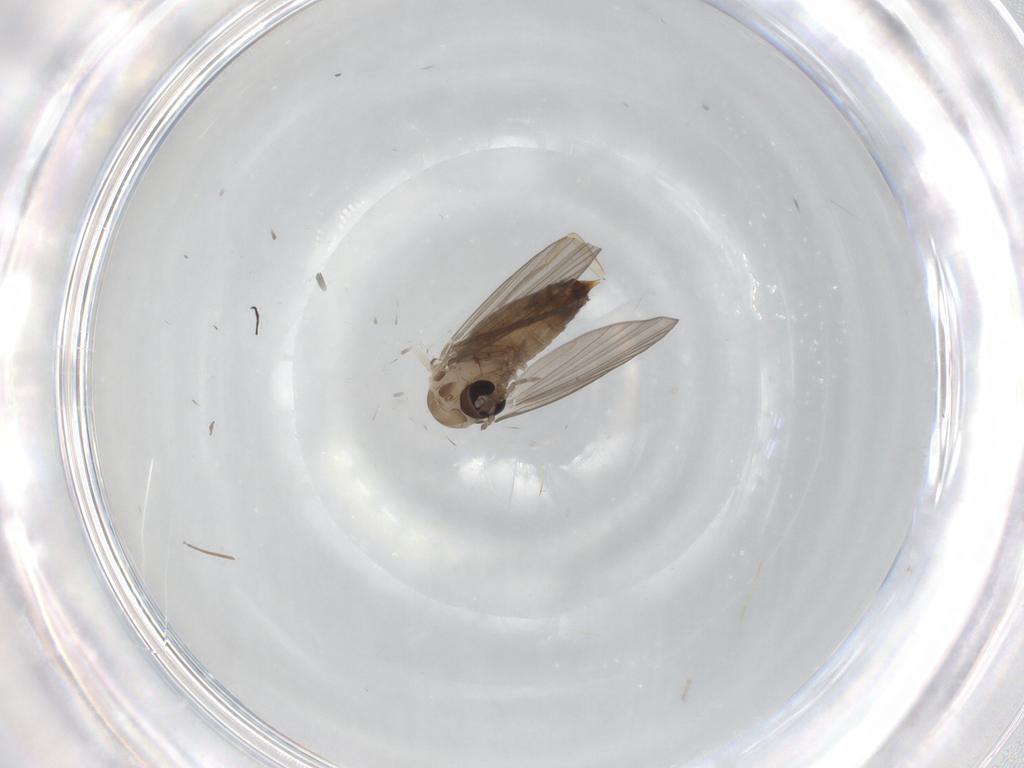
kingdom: Animalia
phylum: Arthropoda
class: Insecta
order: Diptera
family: Psychodidae
